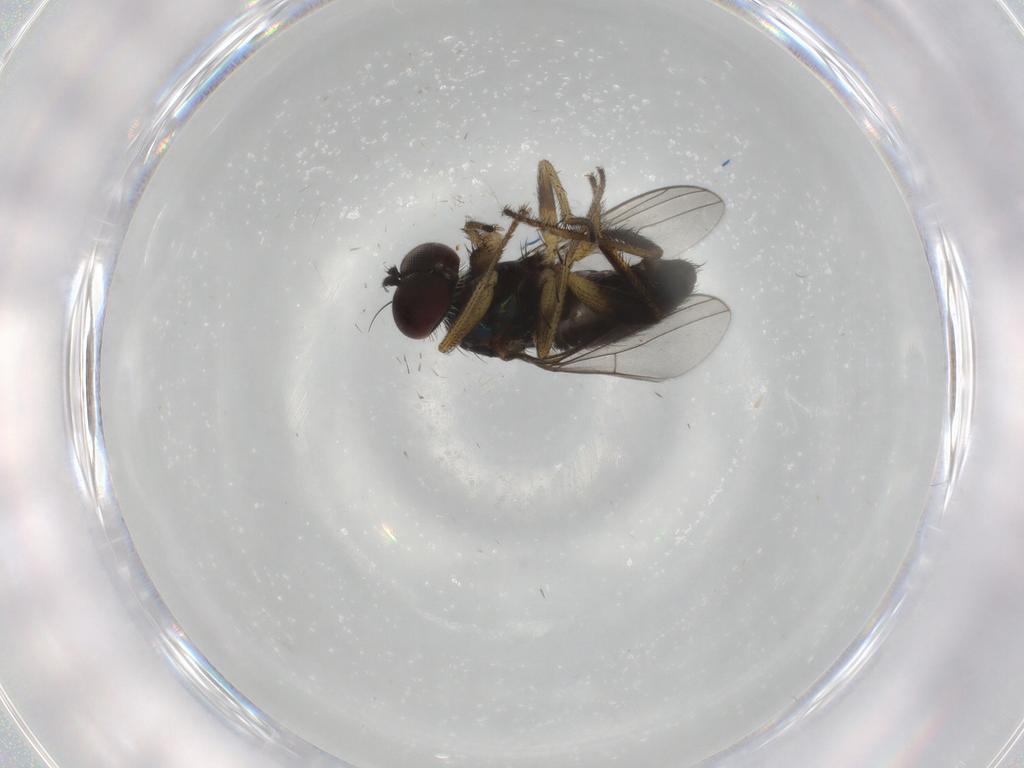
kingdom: Animalia
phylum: Arthropoda
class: Insecta
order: Diptera
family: Dolichopodidae
